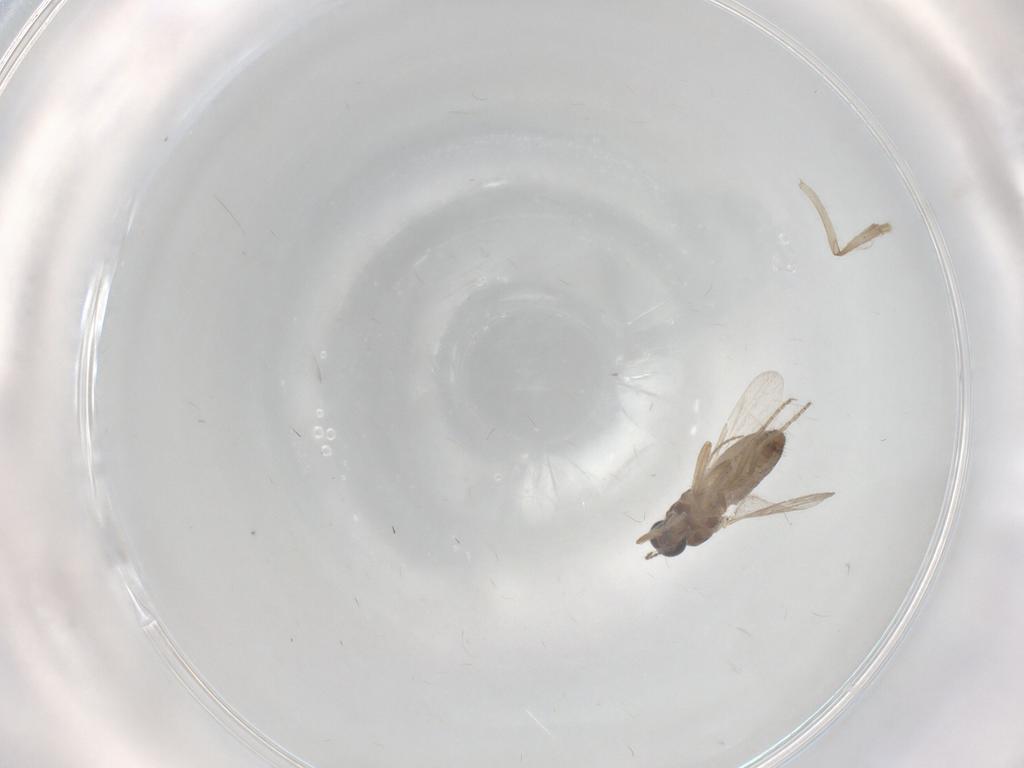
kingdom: Animalia
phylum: Arthropoda
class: Insecta
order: Diptera
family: Ceratopogonidae
